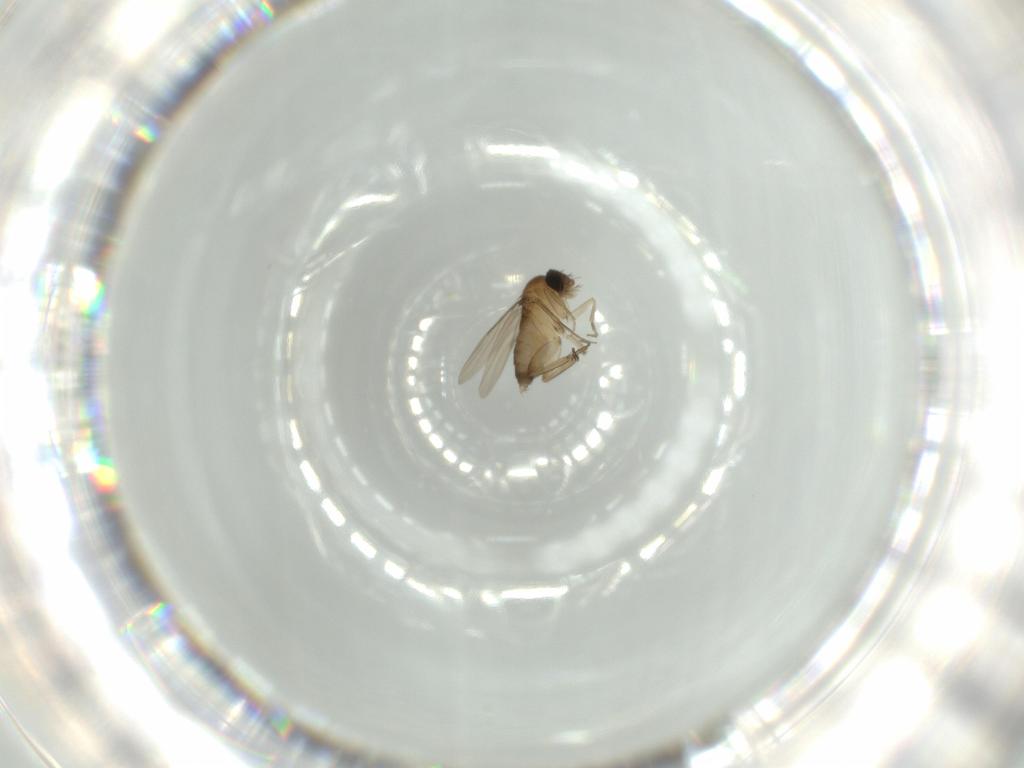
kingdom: Animalia
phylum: Arthropoda
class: Insecta
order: Diptera
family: Phoridae
